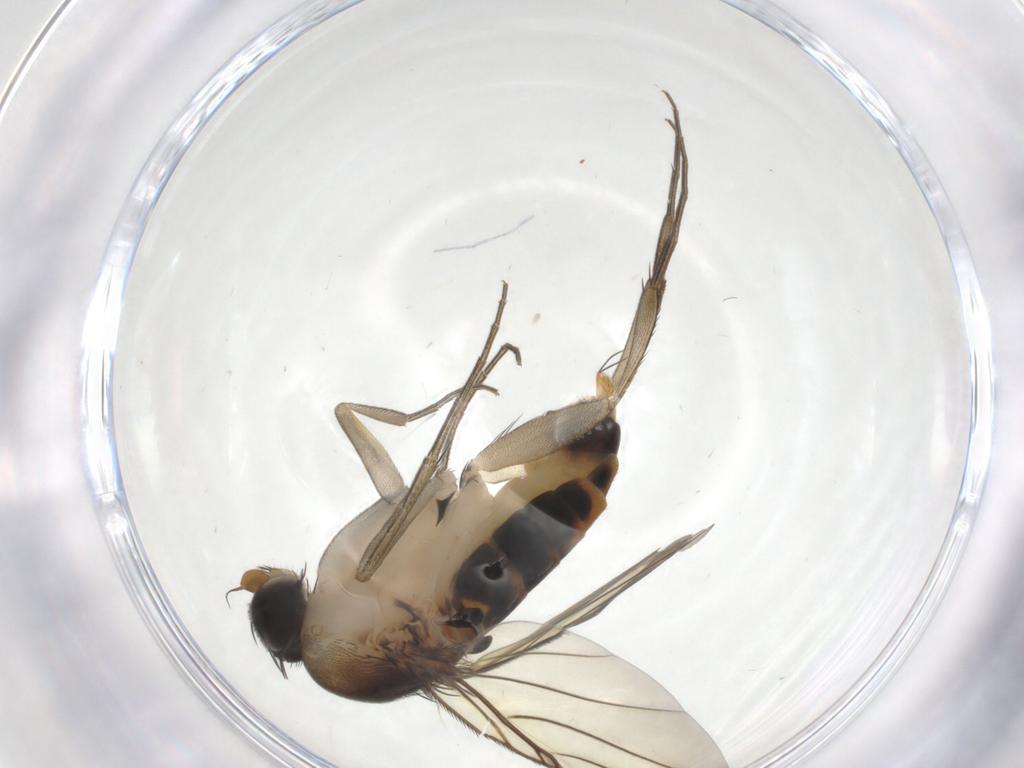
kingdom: Animalia
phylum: Arthropoda
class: Insecta
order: Diptera
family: Phoridae
